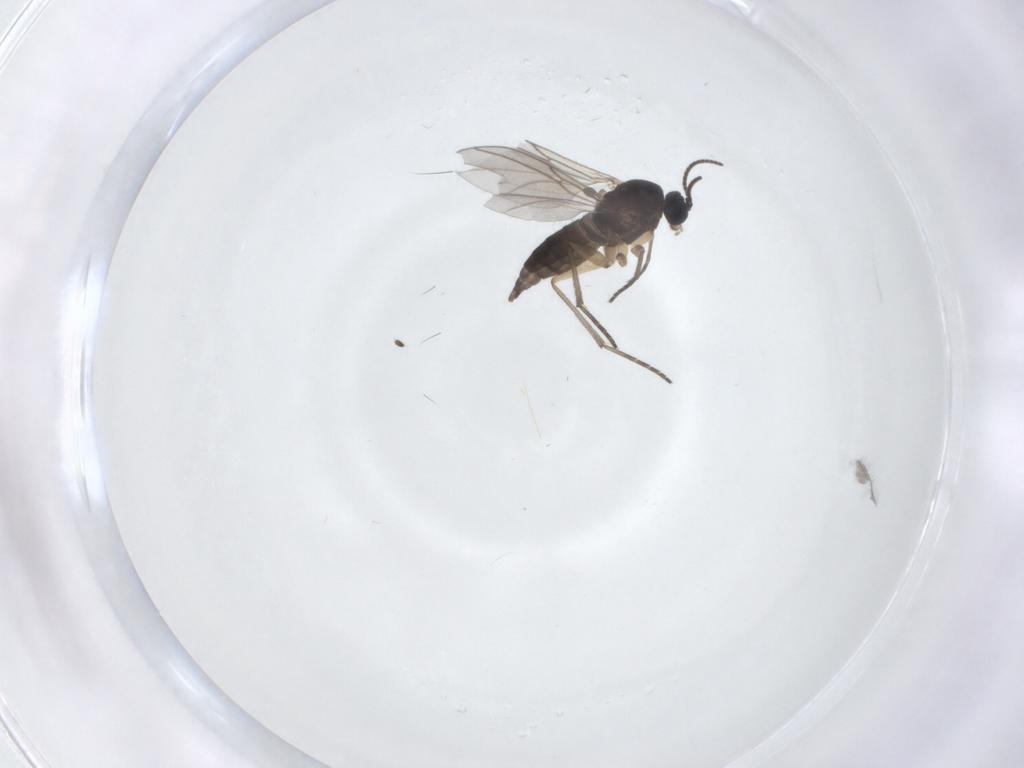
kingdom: Animalia
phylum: Arthropoda
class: Insecta
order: Diptera
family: Sciaridae
